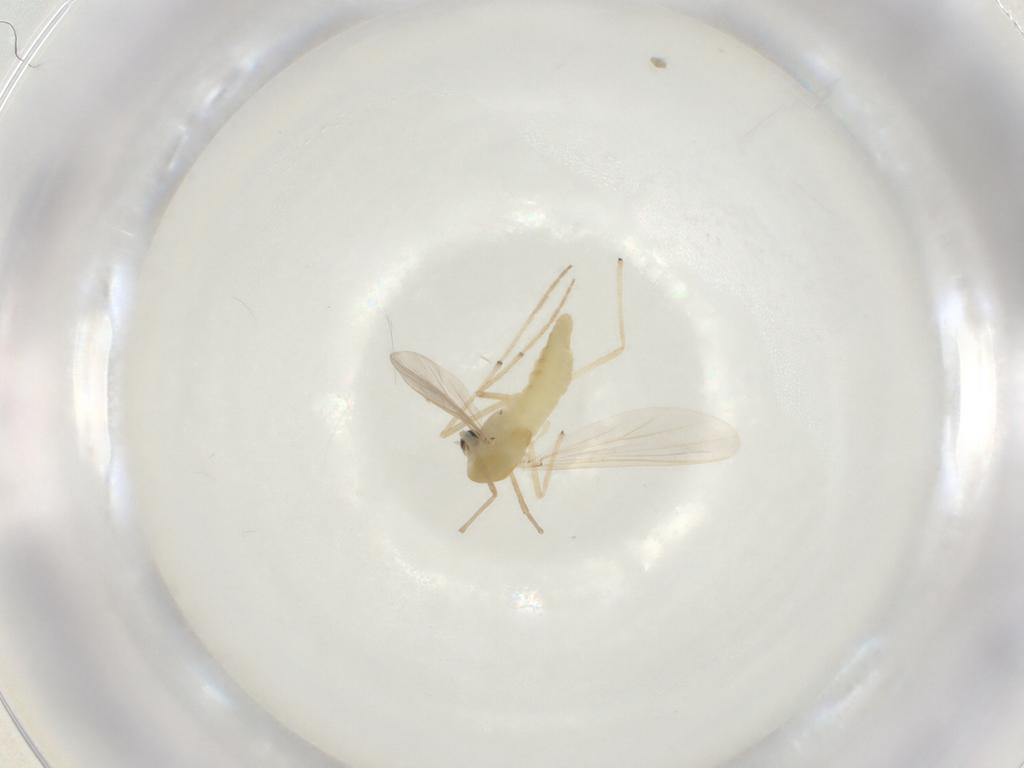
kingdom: Animalia
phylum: Arthropoda
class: Insecta
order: Diptera
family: Chironomidae
